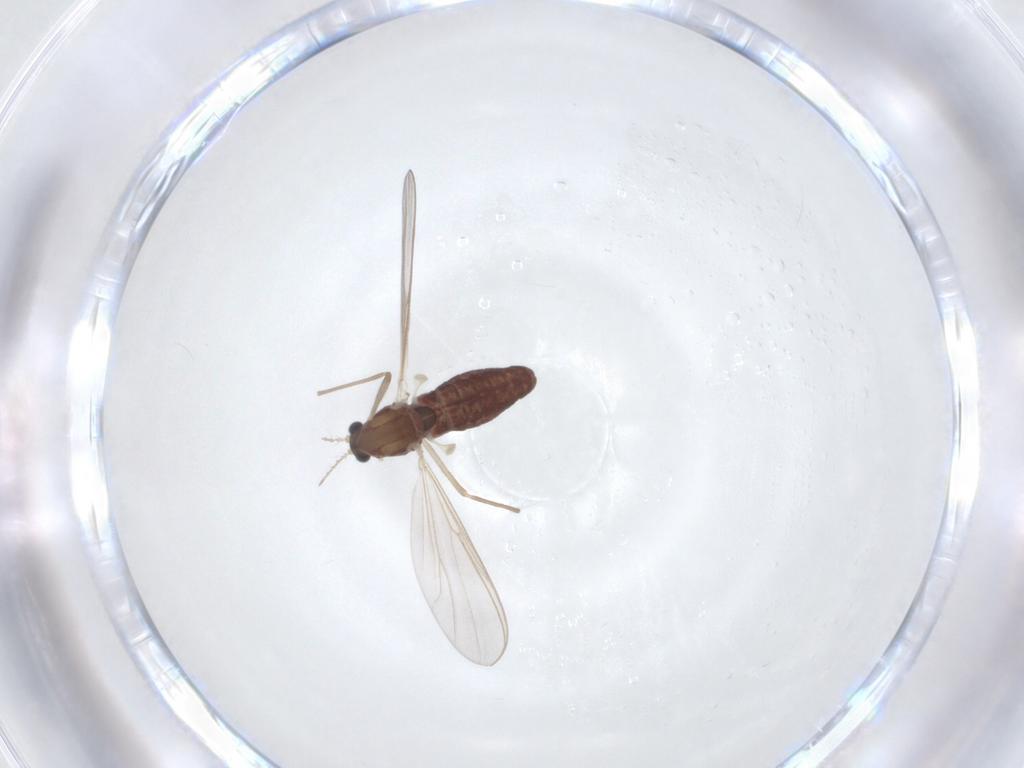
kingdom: Animalia
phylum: Arthropoda
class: Insecta
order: Diptera
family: Chironomidae
